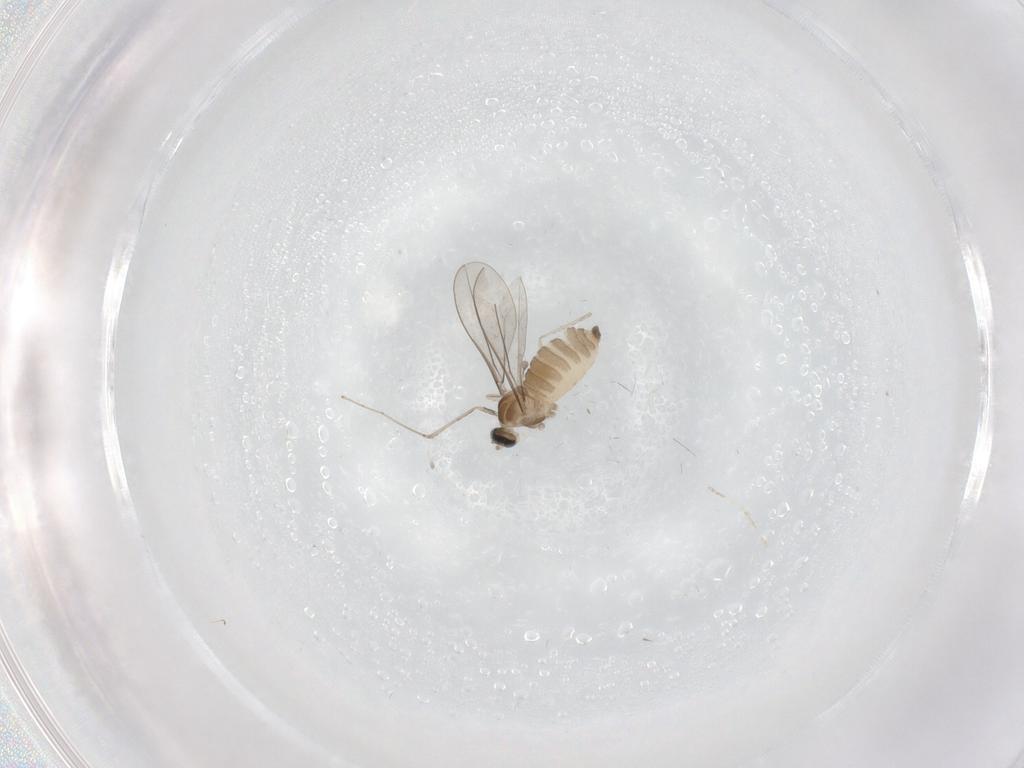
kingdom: Animalia
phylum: Arthropoda
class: Insecta
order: Diptera
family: Cecidomyiidae
